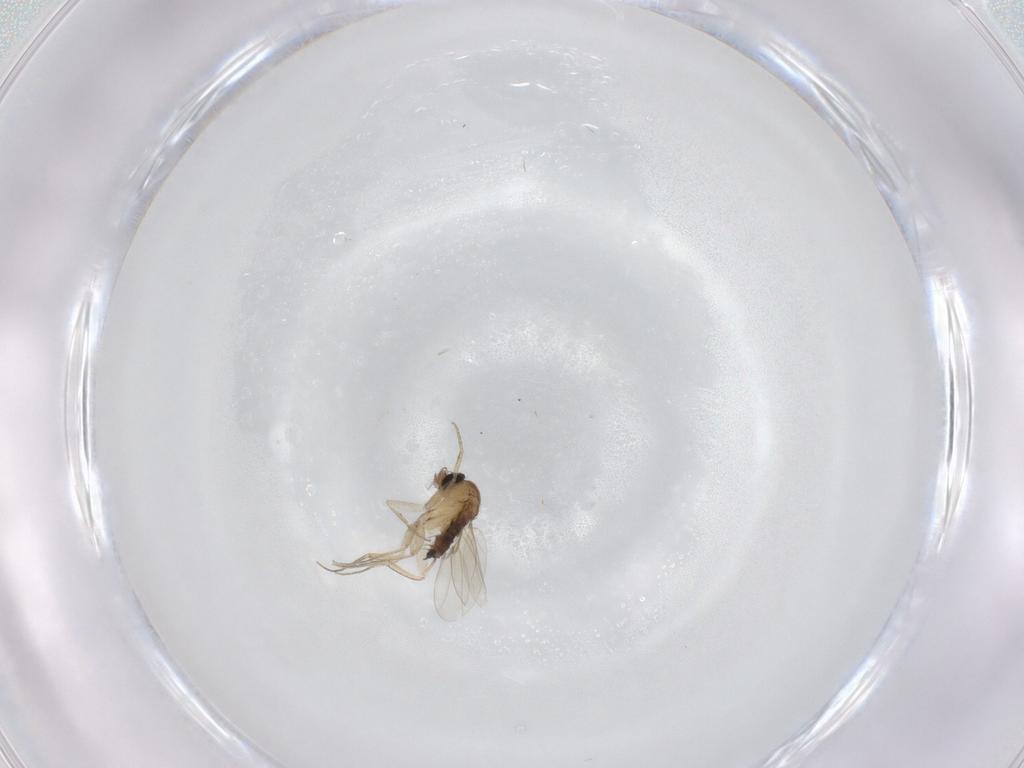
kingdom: Animalia
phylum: Arthropoda
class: Insecta
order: Diptera
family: Phoridae
